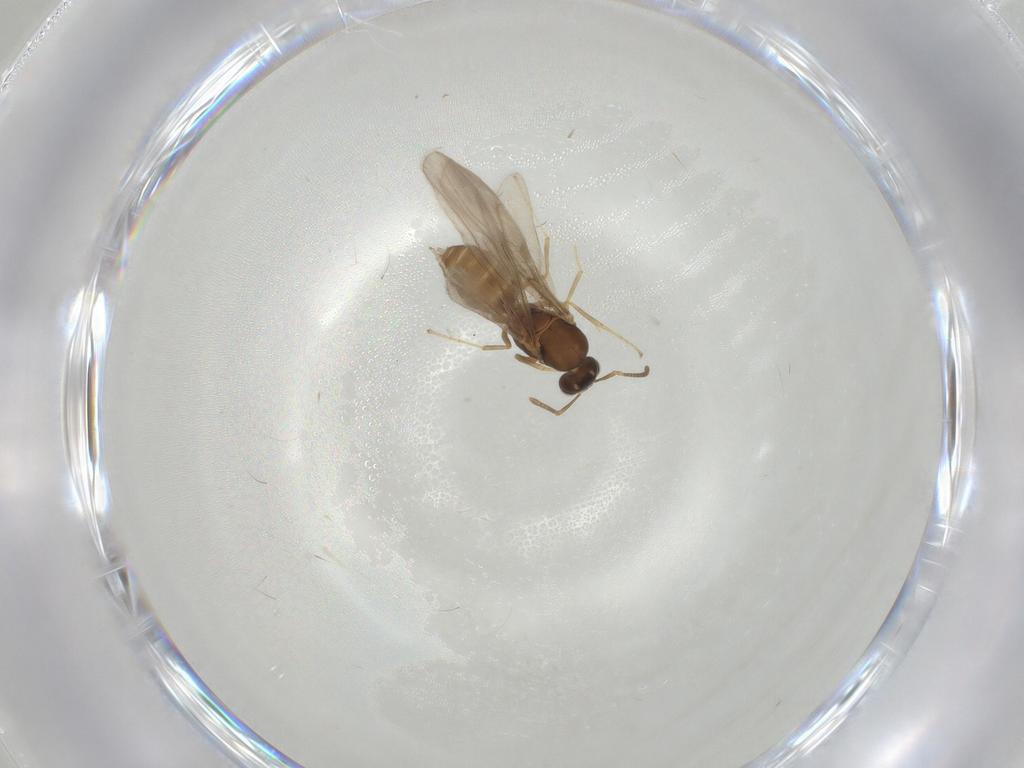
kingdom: Animalia
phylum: Arthropoda
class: Insecta
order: Hymenoptera
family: Formicidae
